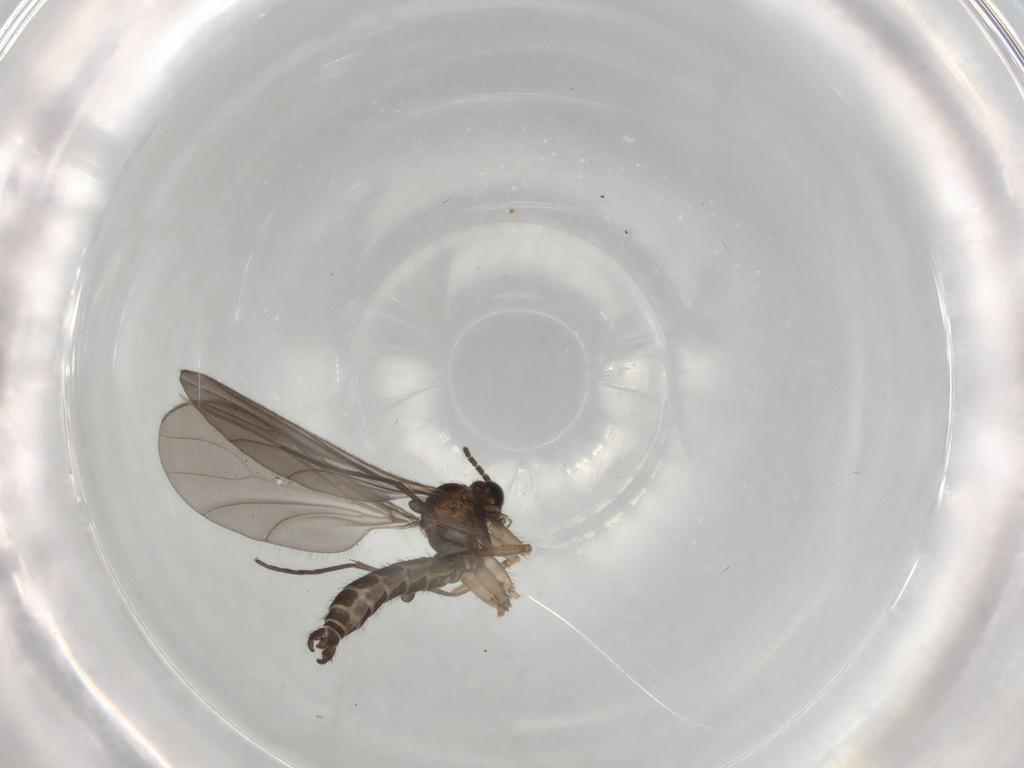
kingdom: Animalia
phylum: Arthropoda
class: Insecta
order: Diptera
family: Sciaridae
